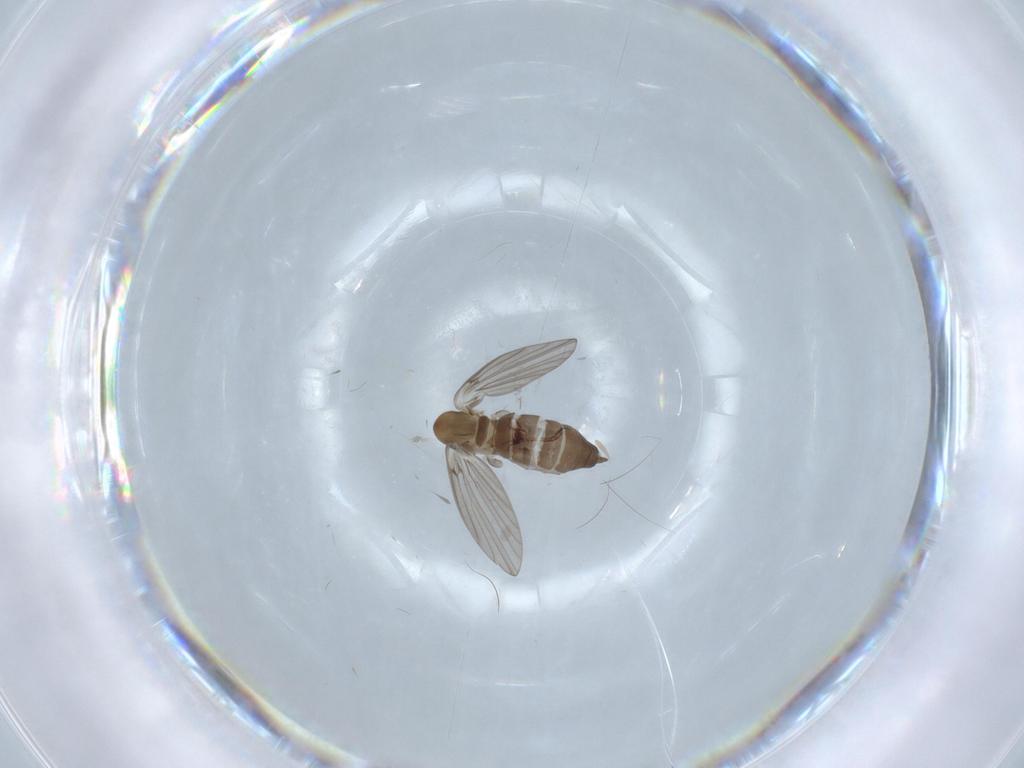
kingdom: Animalia
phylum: Arthropoda
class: Insecta
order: Diptera
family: Psychodidae
